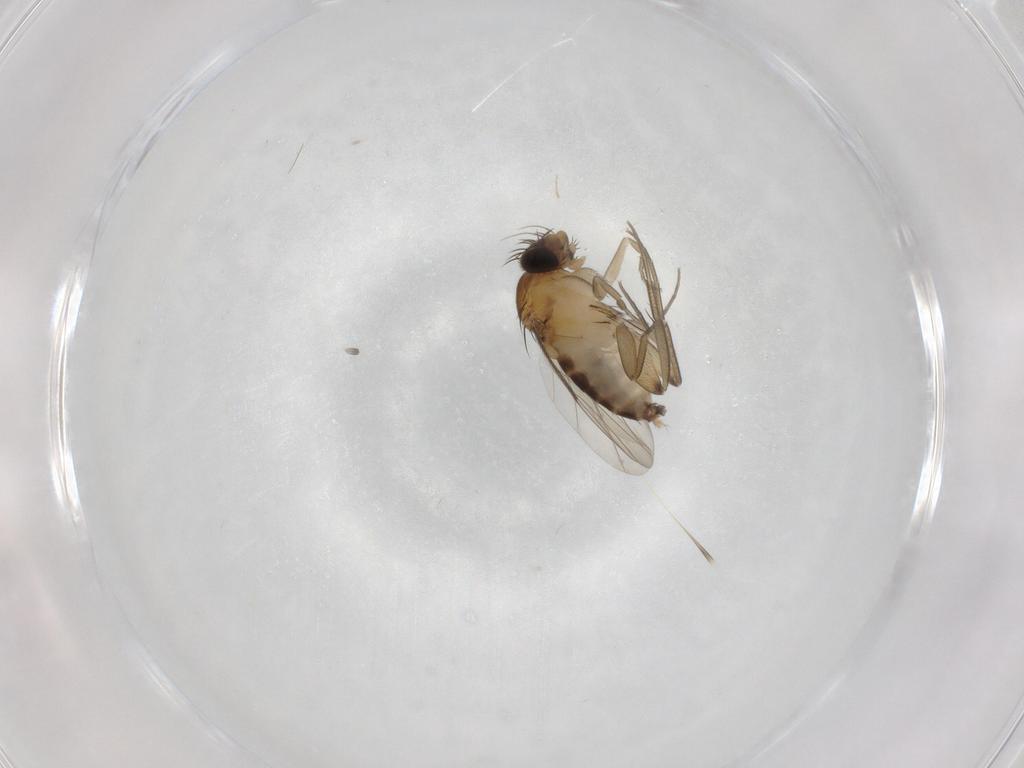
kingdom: Animalia
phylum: Arthropoda
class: Insecta
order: Diptera
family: Phoridae
